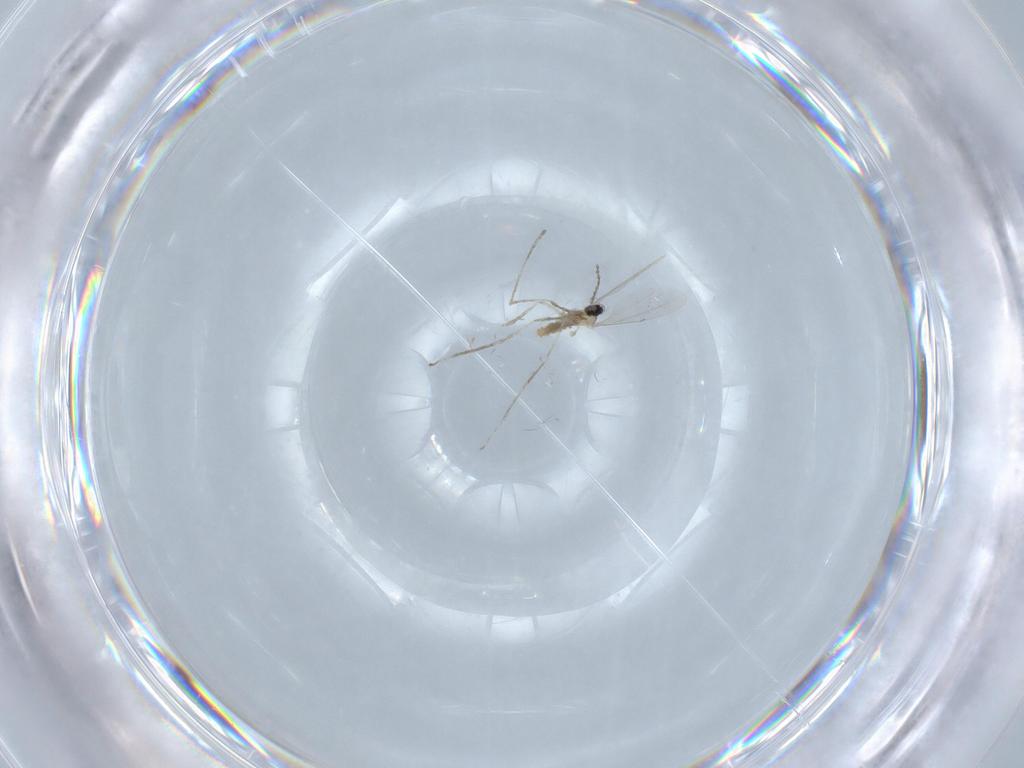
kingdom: Animalia
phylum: Arthropoda
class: Insecta
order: Diptera
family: Cecidomyiidae
